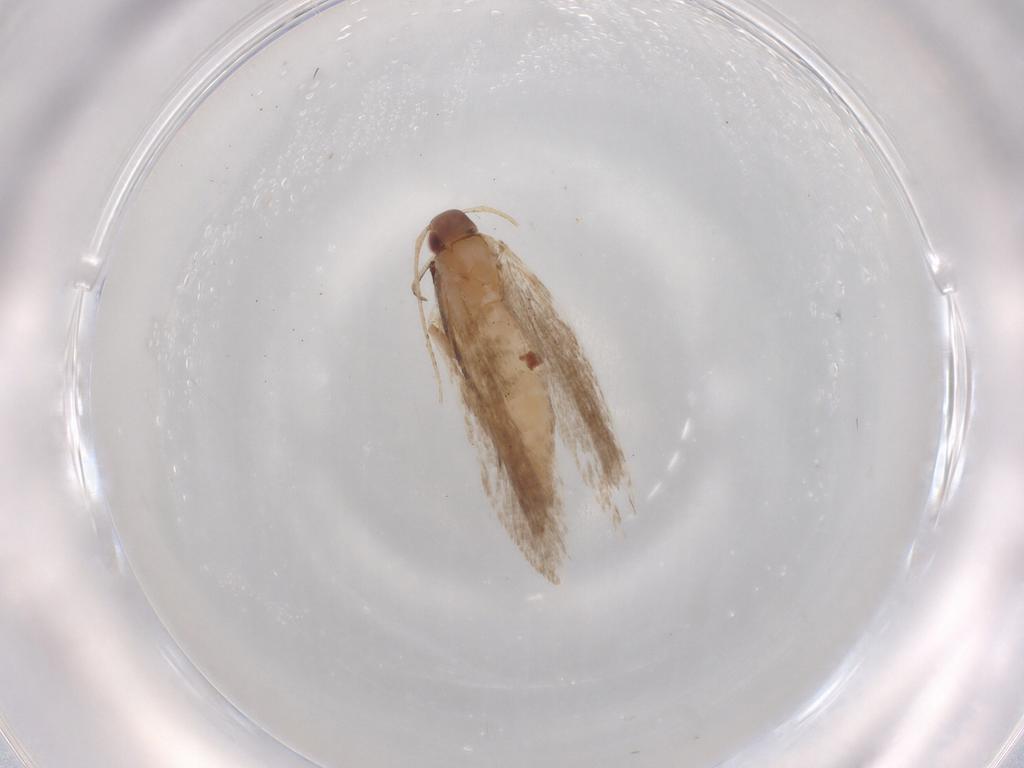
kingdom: Animalia
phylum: Arthropoda
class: Insecta
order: Lepidoptera
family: Gelechiidae
